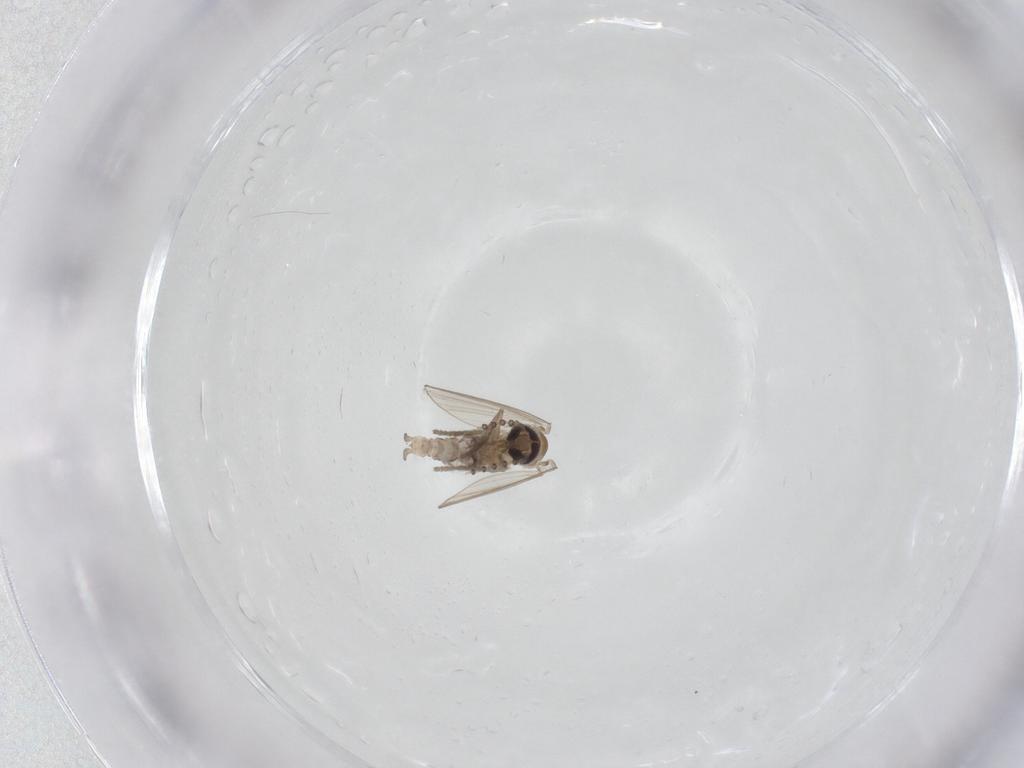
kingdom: Animalia
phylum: Arthropoda
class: Insecta
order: Diptera
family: Psychodidae
